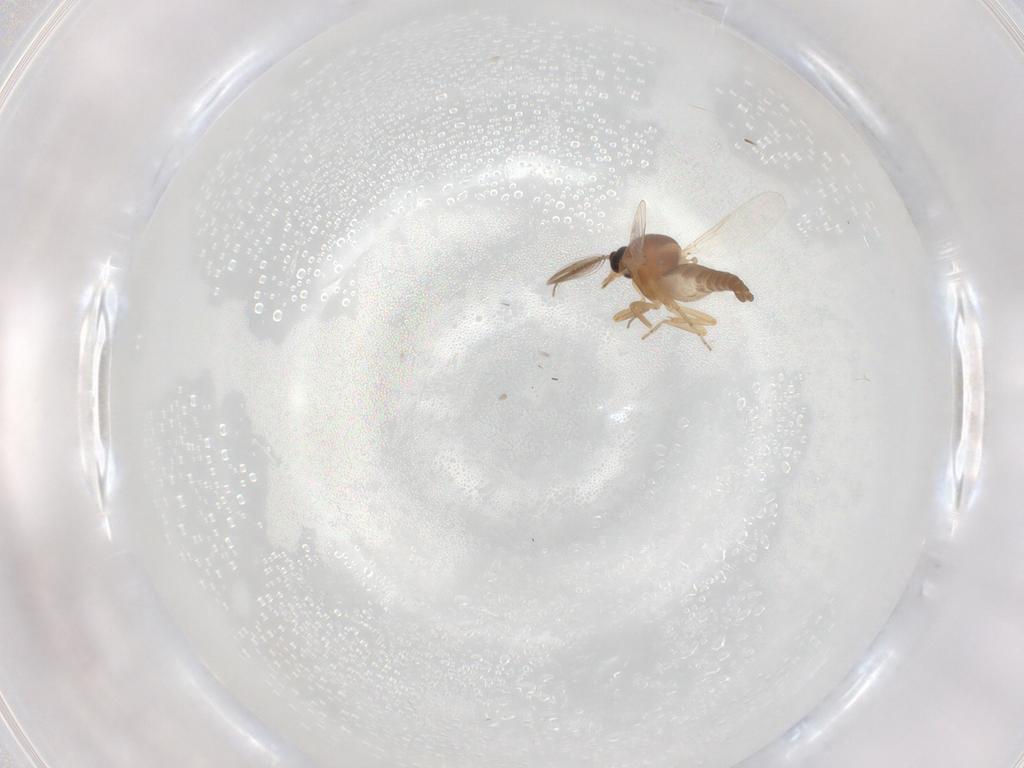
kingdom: Animalia
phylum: Arthropoda
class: Insecta
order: Diptera
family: Ceratopogonidae
